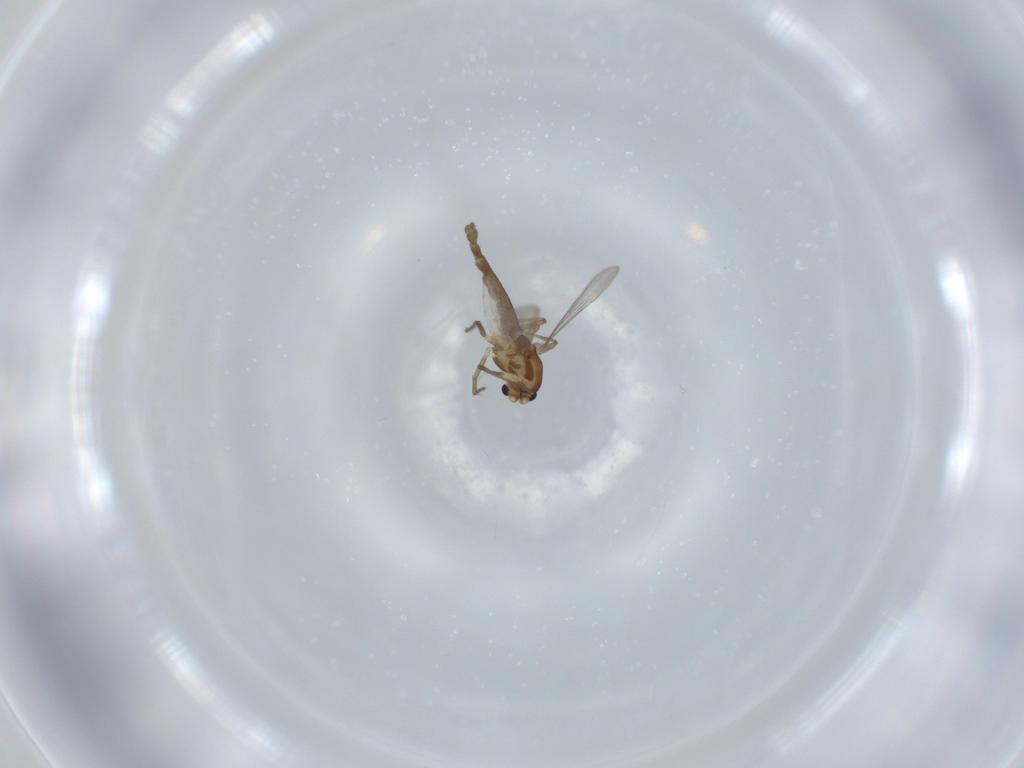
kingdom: Animalia
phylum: Arthropoda
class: Insecta
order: Diptera
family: Chironomidae
